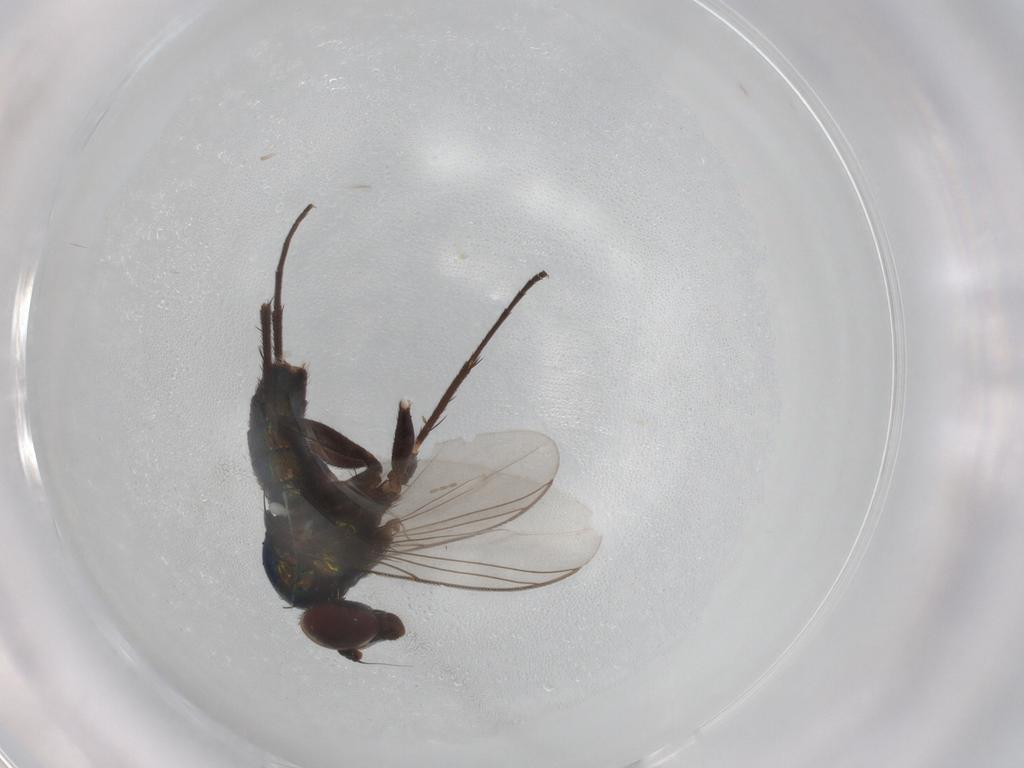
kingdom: Animalia
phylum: Arthropoda
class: Insecta
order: Diptera
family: Dolichopodidae
